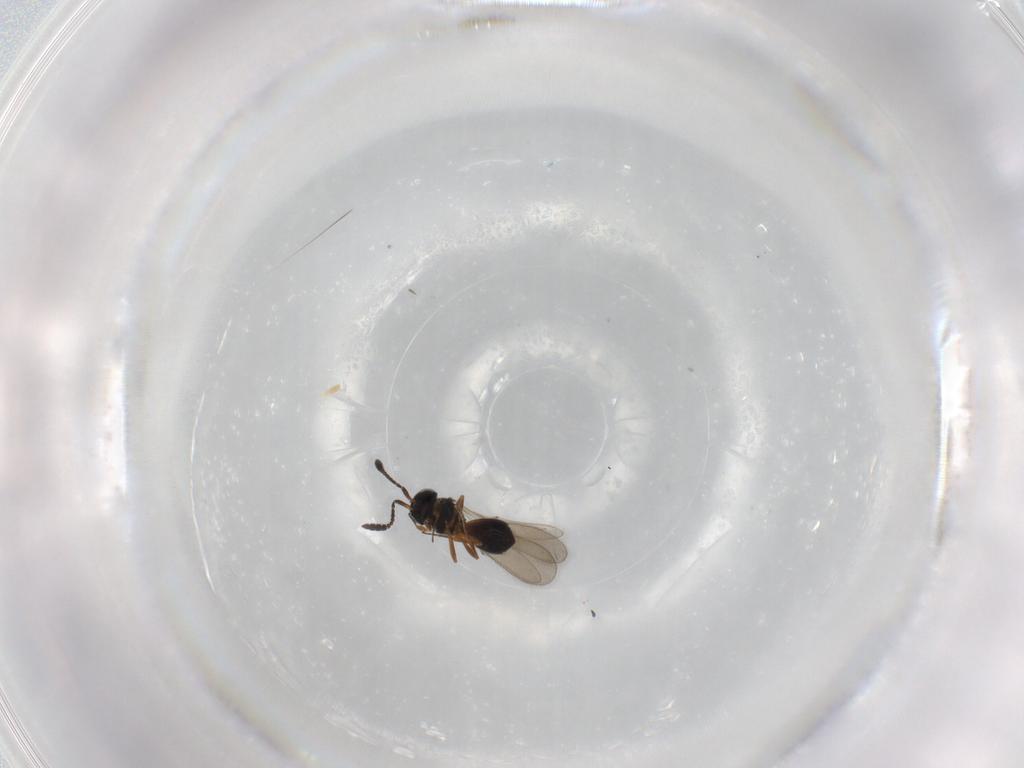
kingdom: Animalia
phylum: Arthropoda
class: Insecta
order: Hymenoptera
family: Scelionidae
